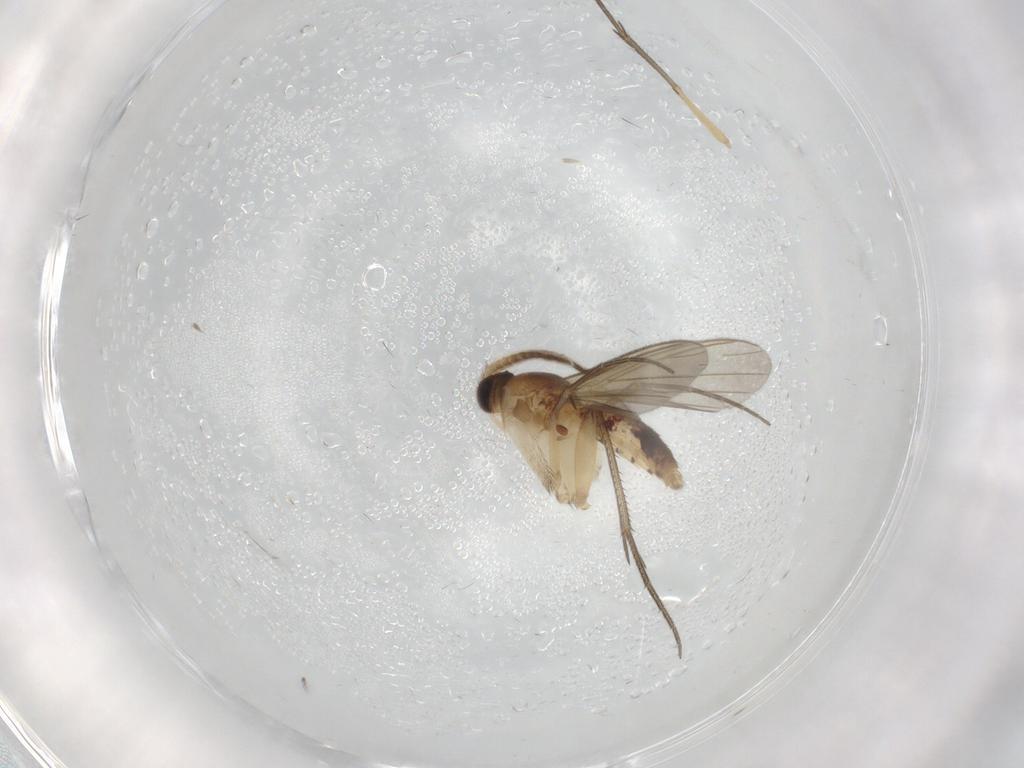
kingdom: Animalia
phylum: Arthropoda
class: Insecta
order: Diptera
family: Mycetophilidae
